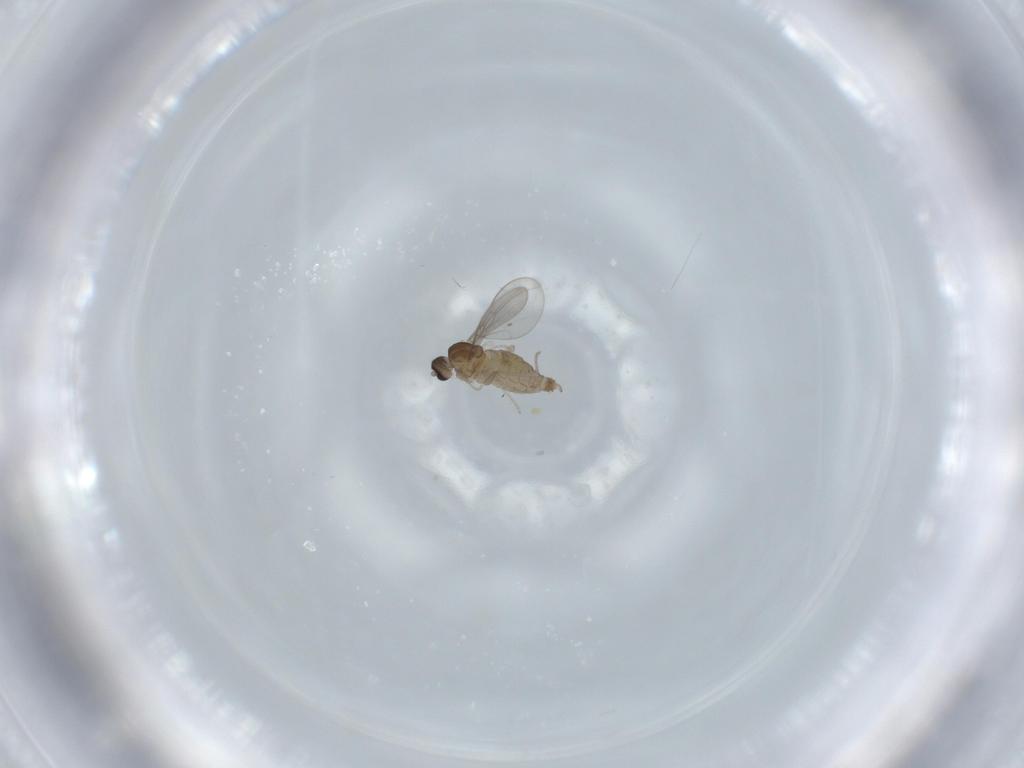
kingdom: Animalia
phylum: Arthropoda
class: Insecta
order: Diptera
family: Cecidomyiidae
